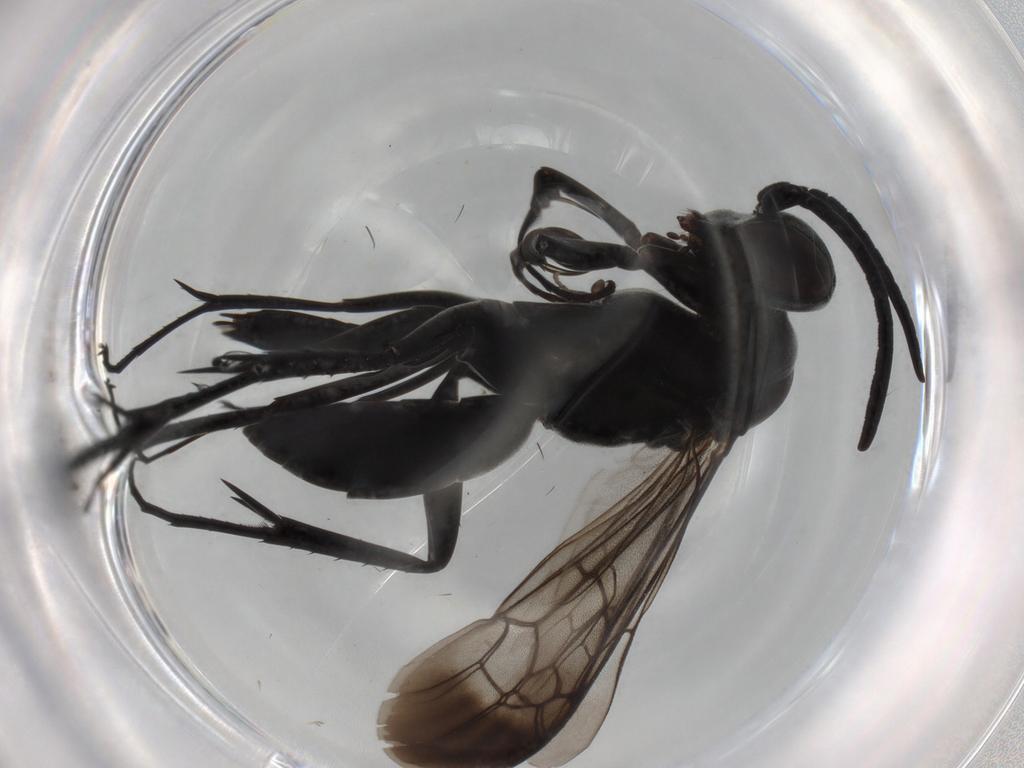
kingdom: Animalia
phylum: Arthropoda
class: Insecta
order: Hymenoptera
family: Pompilidae
